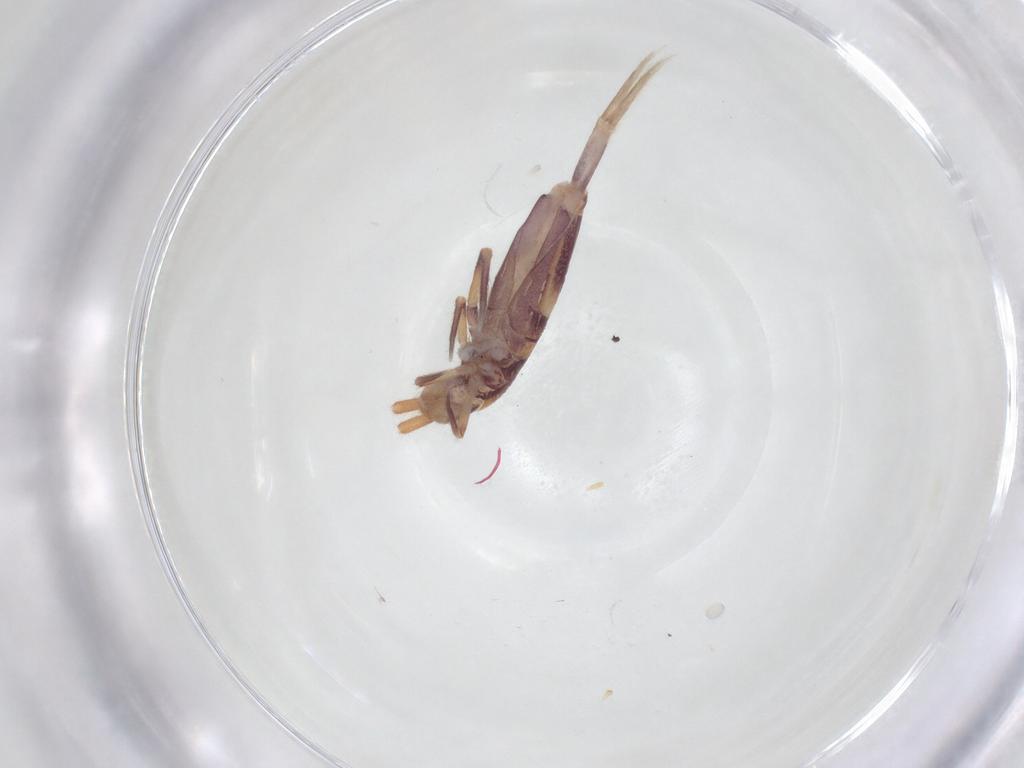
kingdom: Animalia
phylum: Arthropoda
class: Collembola
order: Entomobryomorpha
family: Entomobryidae
